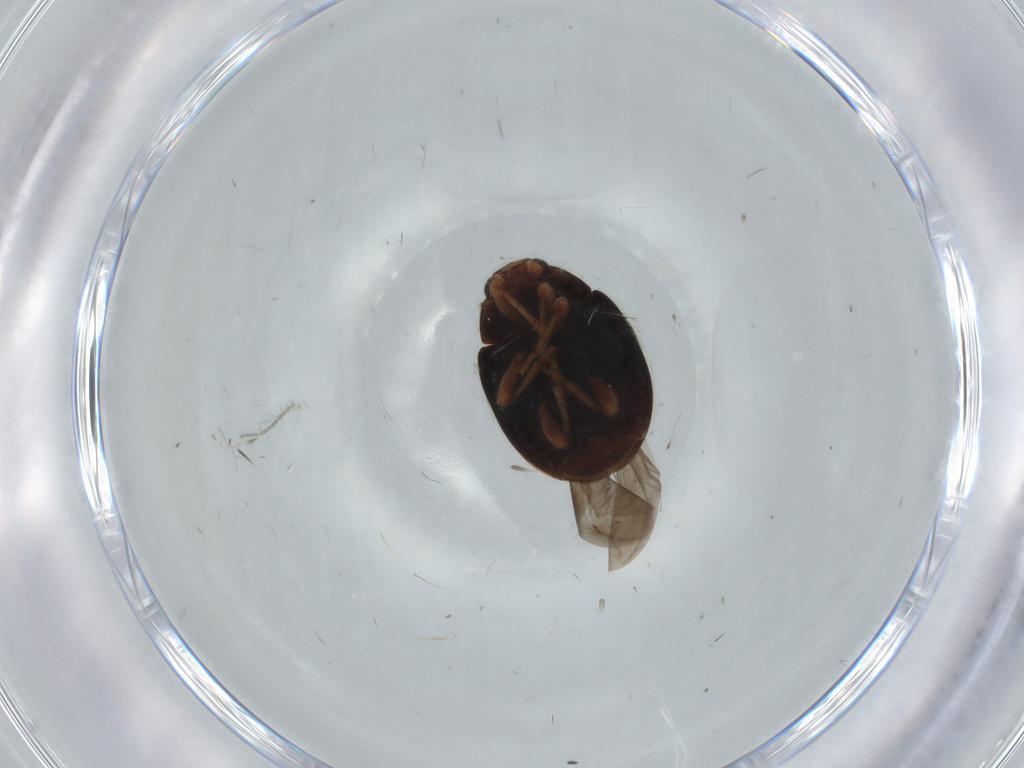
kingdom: Animalia
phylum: Arthropoda
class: Insecta
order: Coleoptera
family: Coccinellidae
